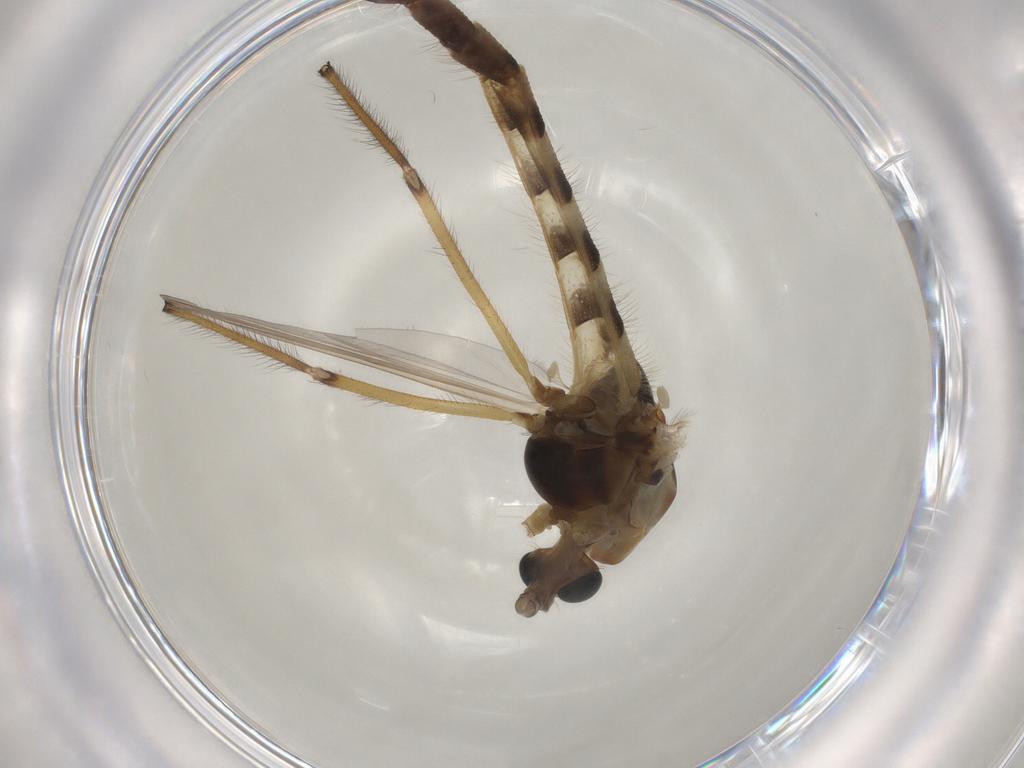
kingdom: Animalia
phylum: Arthropoda
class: Insecta
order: Diptera
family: Chironomidae
